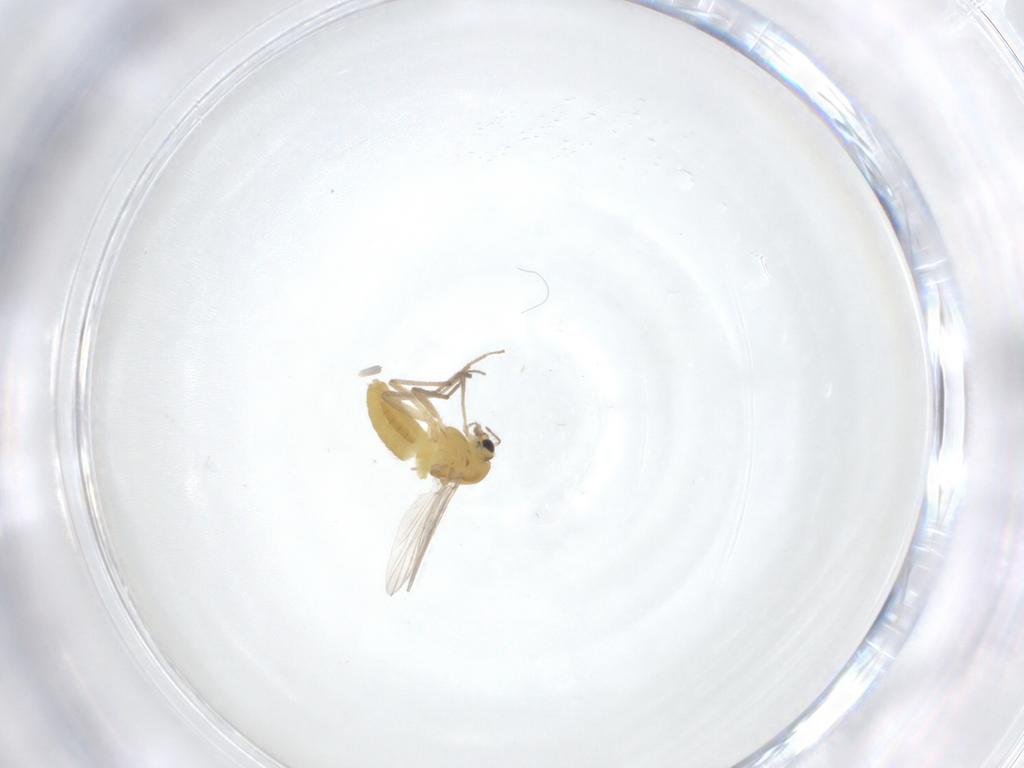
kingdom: Animalia
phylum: Arthropoda
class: Insecta
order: Diptera
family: Chironomidae
